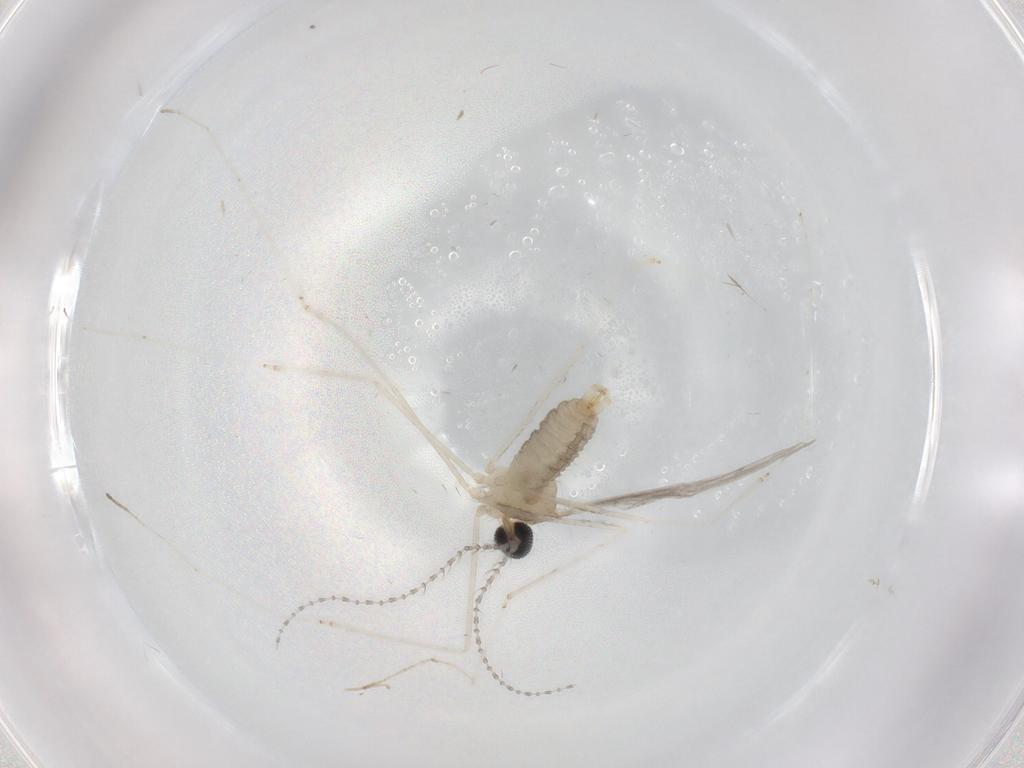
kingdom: Animalia
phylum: Arthropoda
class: Insecta
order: Diptera
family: Cecidomyiidae
